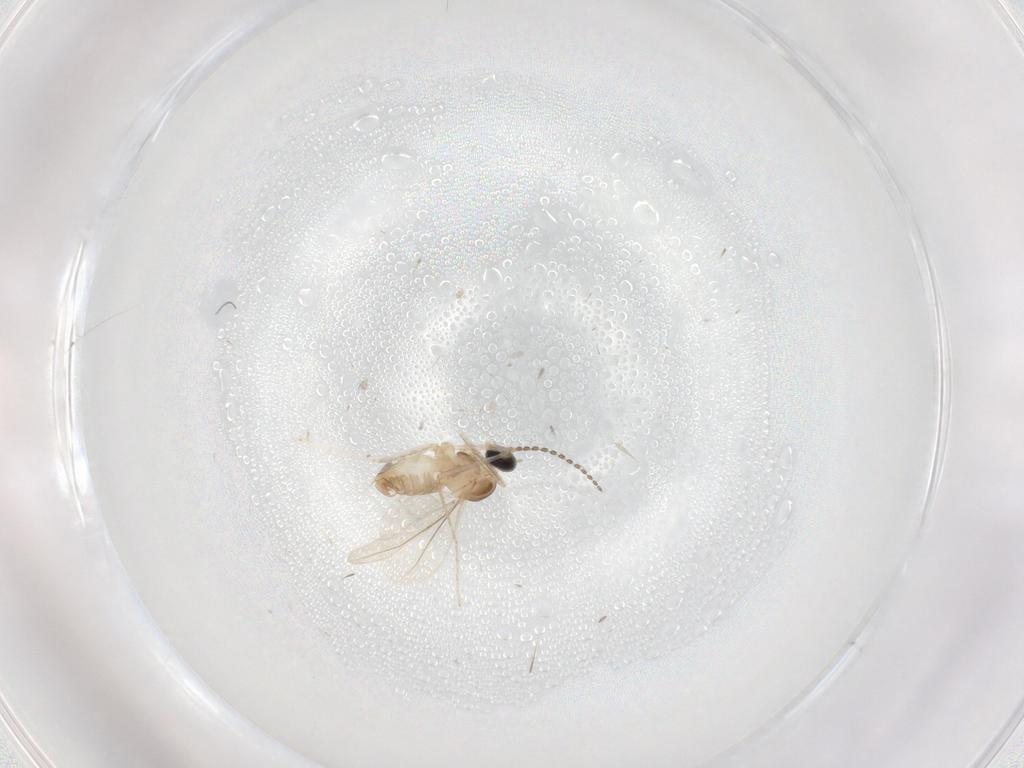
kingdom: Animalia
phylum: Arthropoda
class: Insecta
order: Diptera
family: Cecidomyiidae
